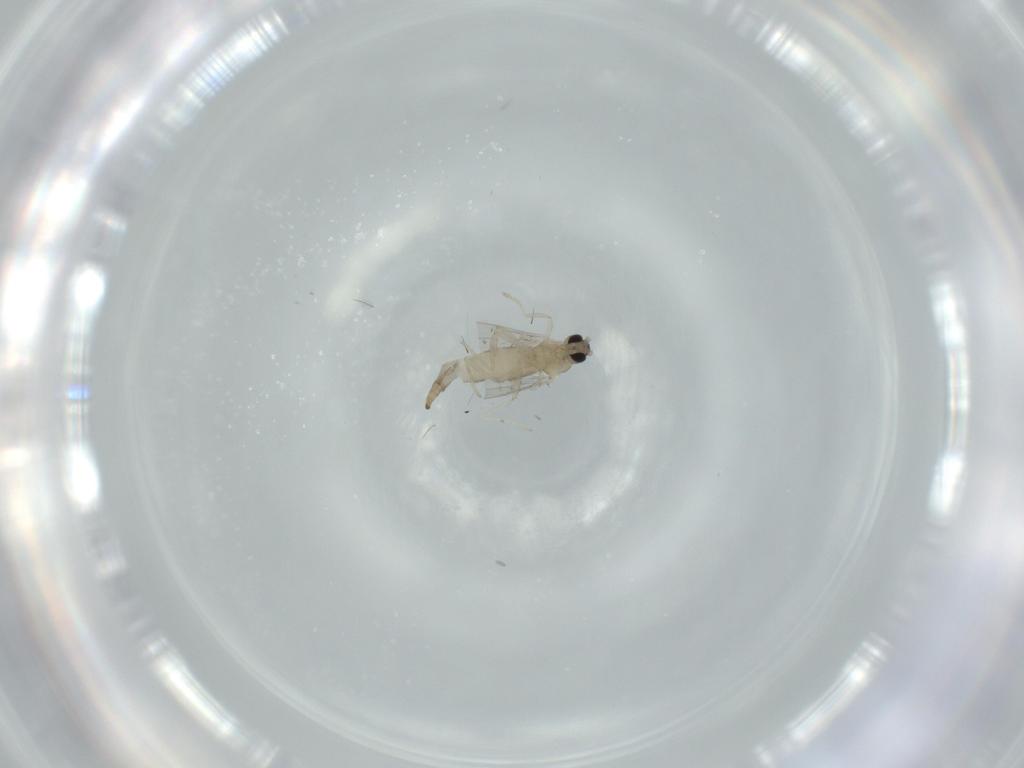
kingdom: Animalia
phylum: Arthropoda
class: Insecta
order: Diptera
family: Cecidomyiidae
